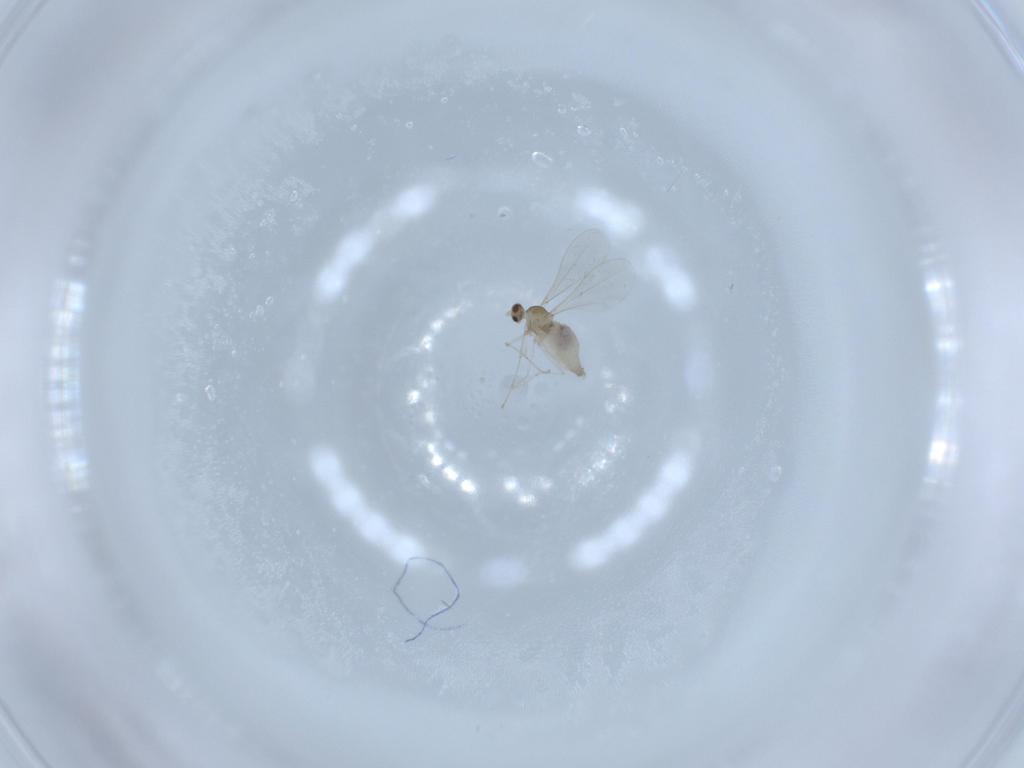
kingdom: Animalia
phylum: Arthropoda
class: Insecta
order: Diptera
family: Cecidomyiidae
